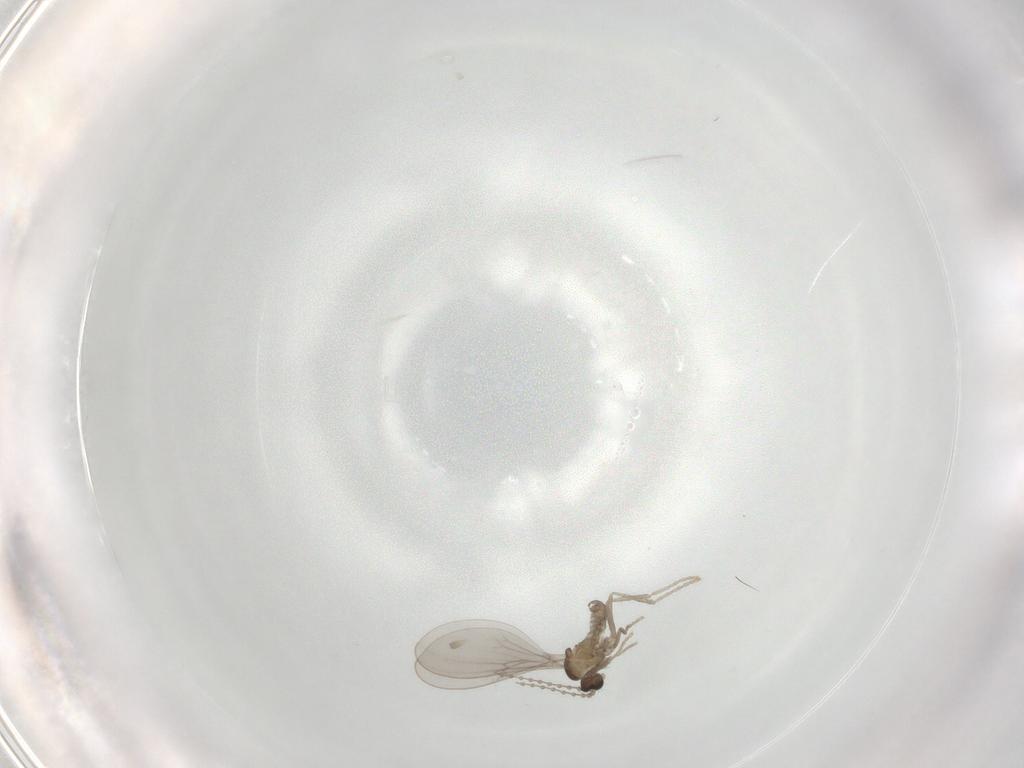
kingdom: Animalia
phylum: Arthropoda
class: Insecta
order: Diptera
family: Cecidomyiidae
